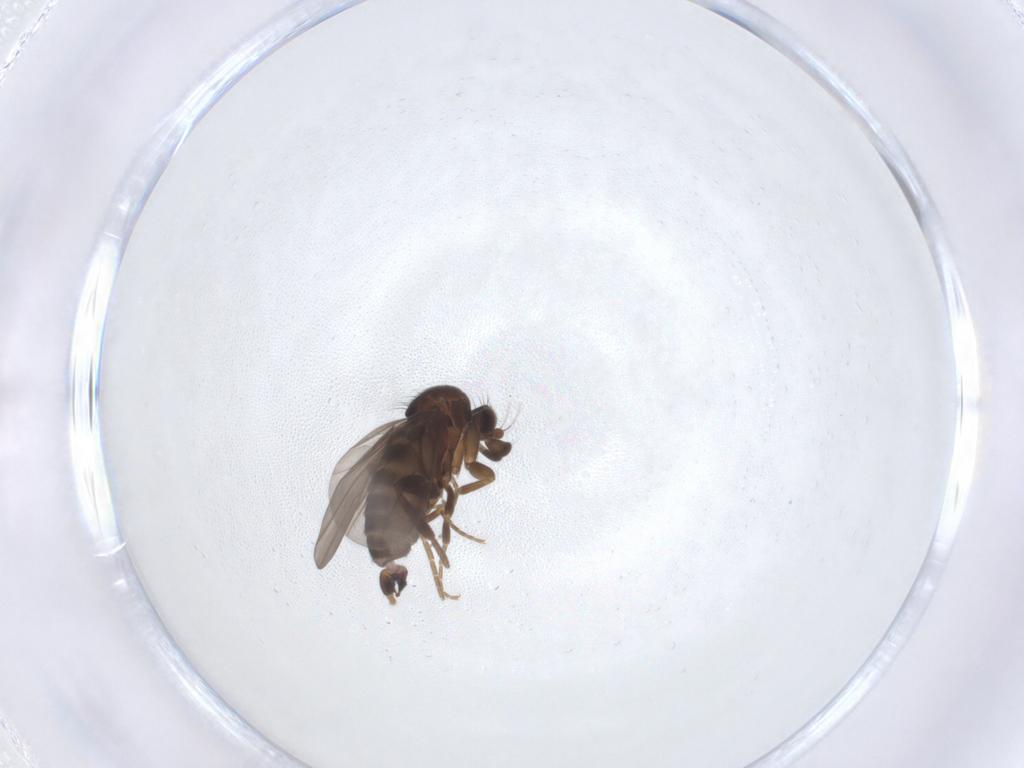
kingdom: Animalia
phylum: Arthropoda
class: Insecta
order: Diptera
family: Phoridae
